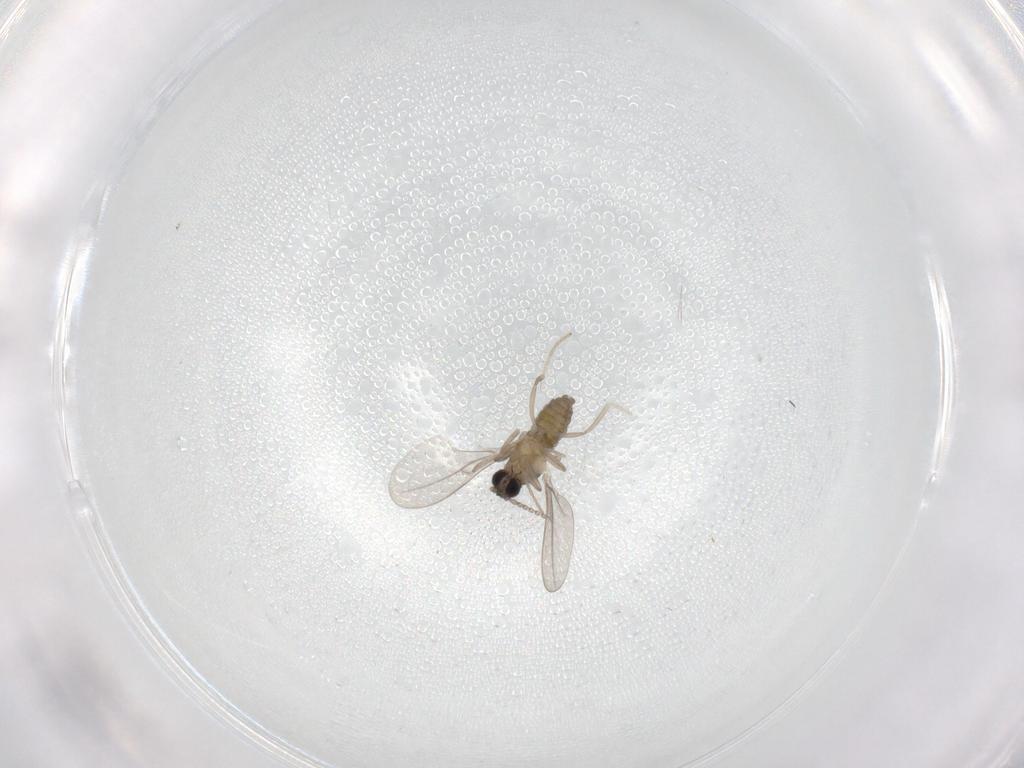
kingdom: Animalia
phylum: Arthropoda
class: Insecta
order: Diptera
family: Cecidomyiidae
